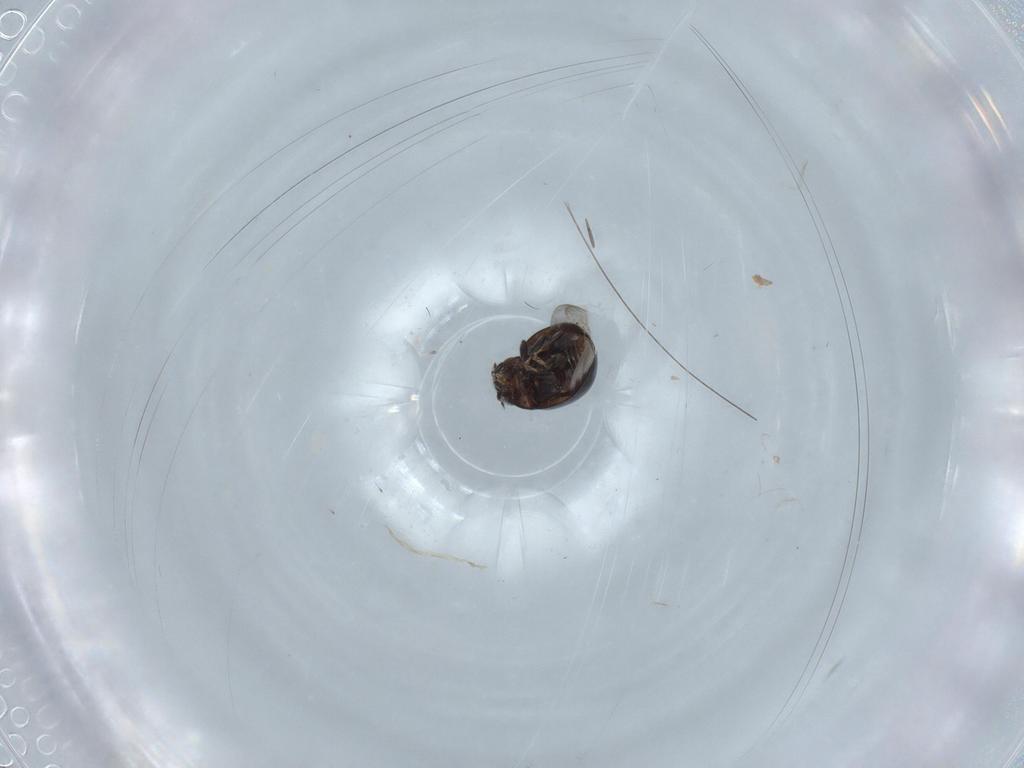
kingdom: Animalia
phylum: Arthropoda
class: Insecta
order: Coleoptera
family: Coccinellidae
